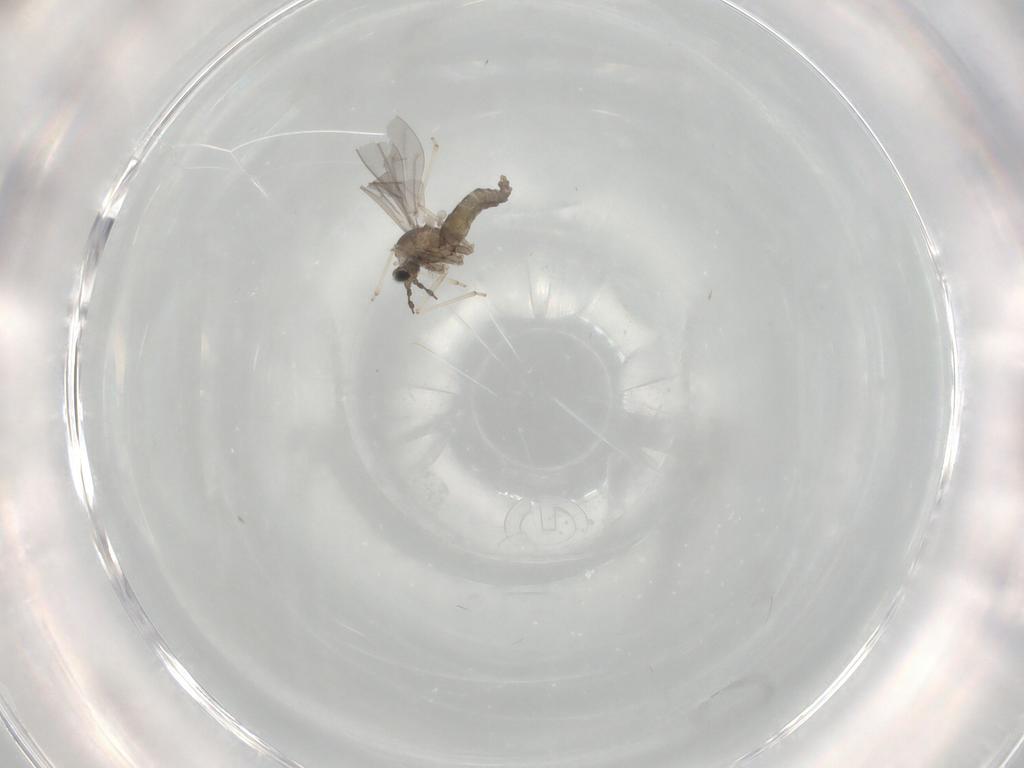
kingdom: Animalia
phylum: Arthropoda
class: Insecta
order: Diptera
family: Cecidomyiidae
